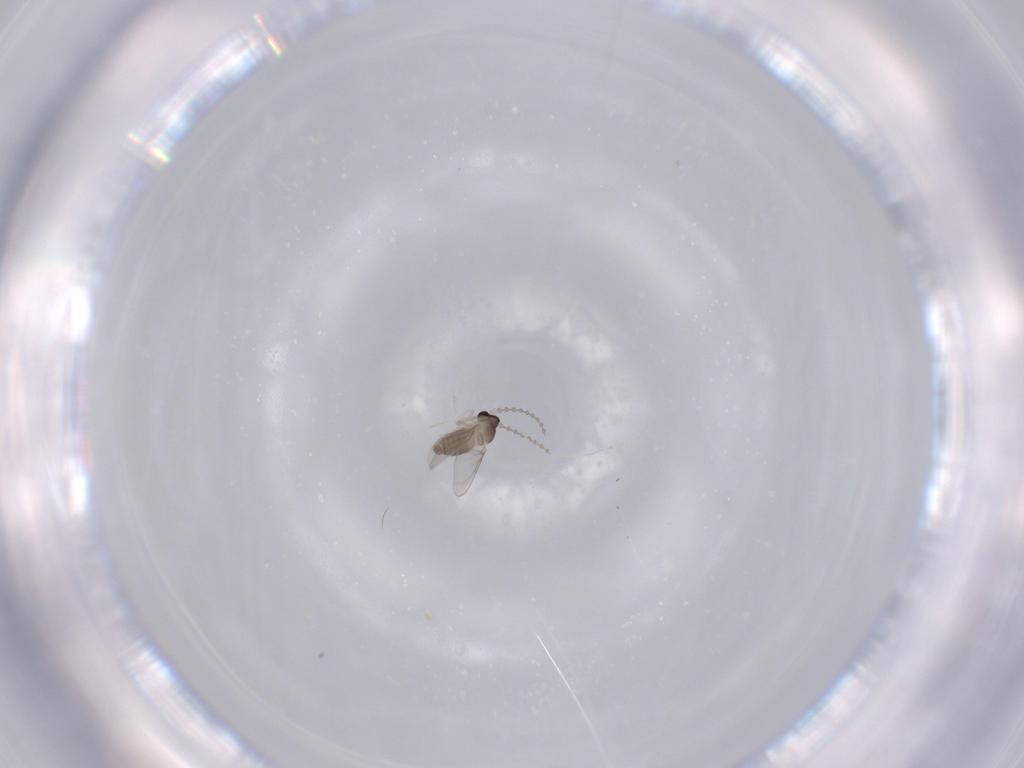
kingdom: Animalia
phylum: Arthropoda
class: Insecta
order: Diptera
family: Cecidomyiidae
